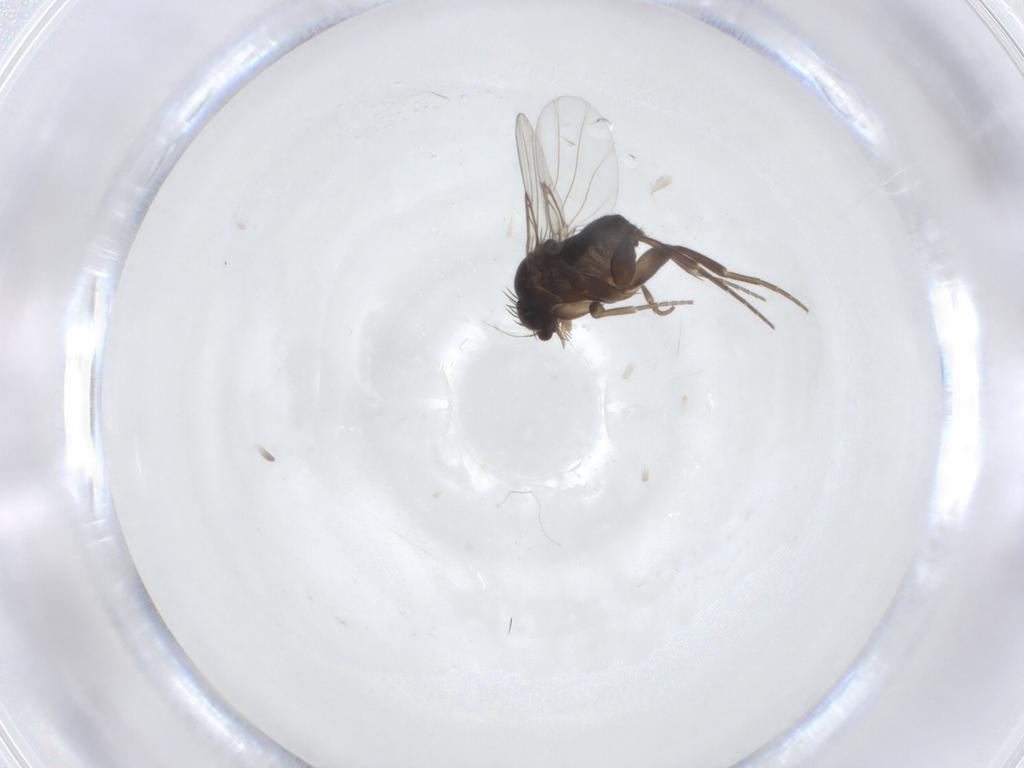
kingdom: Animalia
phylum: Arthropoda
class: Insecta
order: Diptera
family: Phoridae
